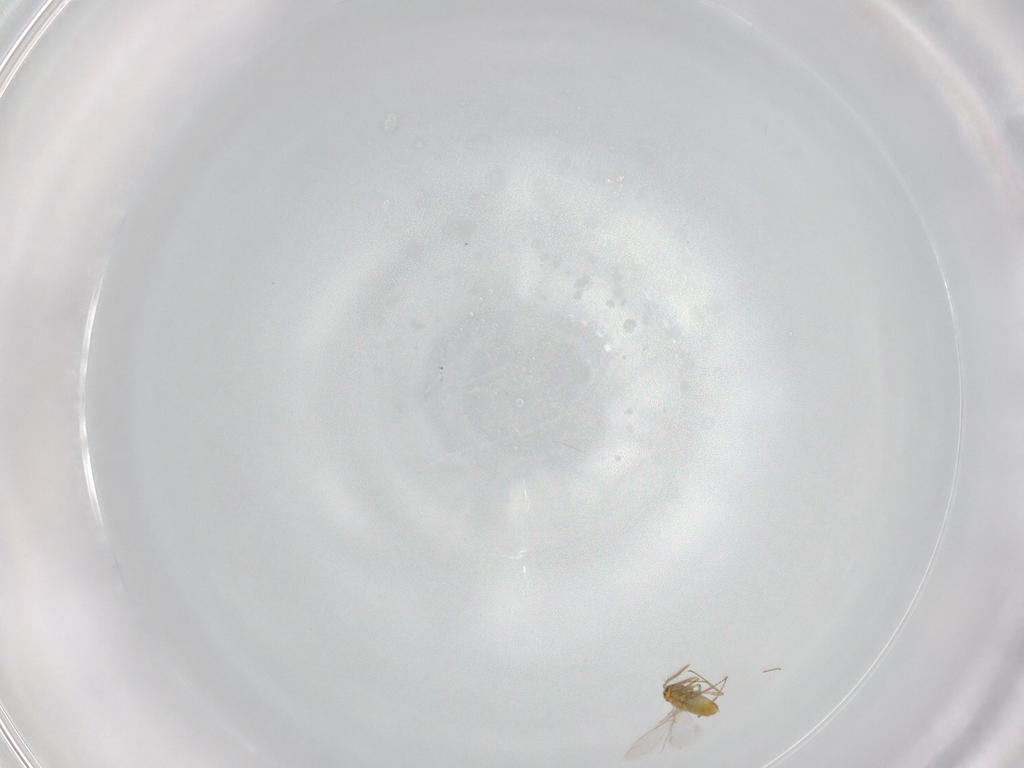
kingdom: Animalia
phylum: Arthropoda
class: Insecta
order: Hymenoptera
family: Aphelinidae
